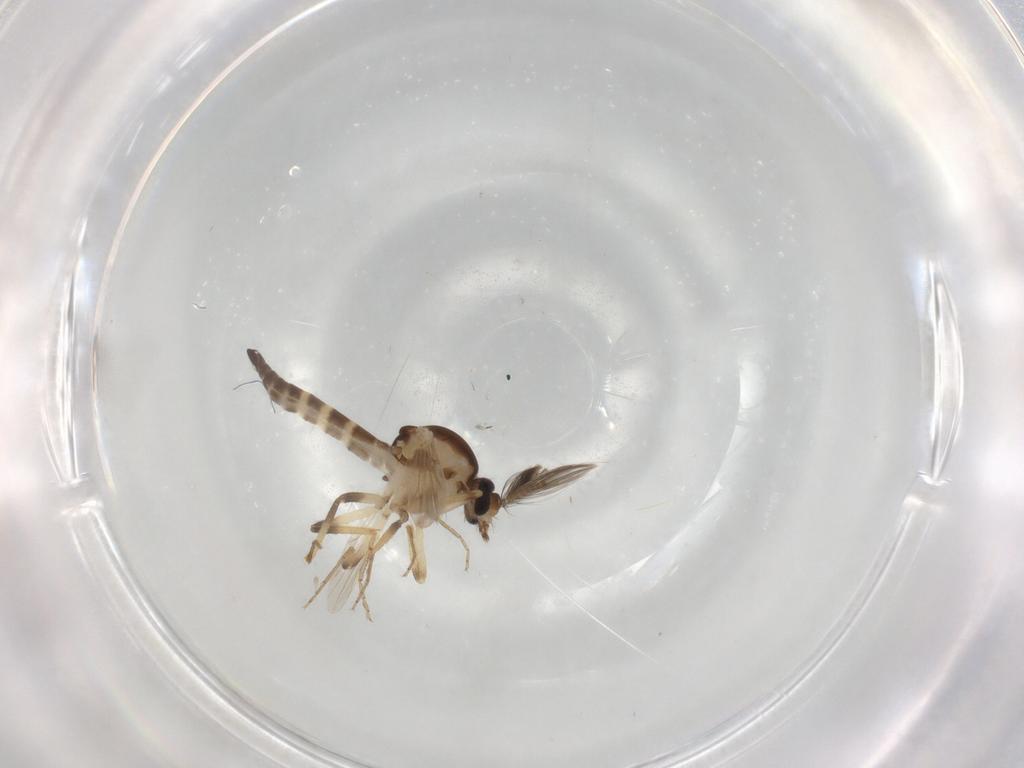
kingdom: Animalia
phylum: Arthropoda
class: Insecta
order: Diptera
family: Ceratopogonidae
